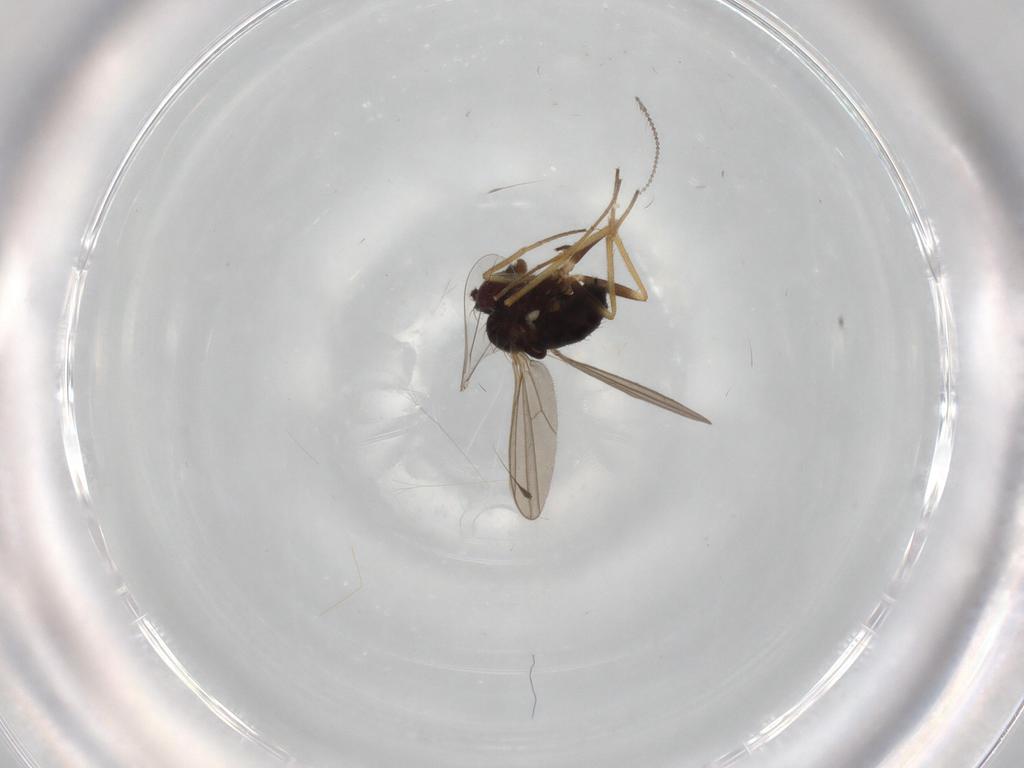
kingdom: Animalia
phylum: Arthropoda
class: Insecta
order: Diptera
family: Cecidomyiidae
